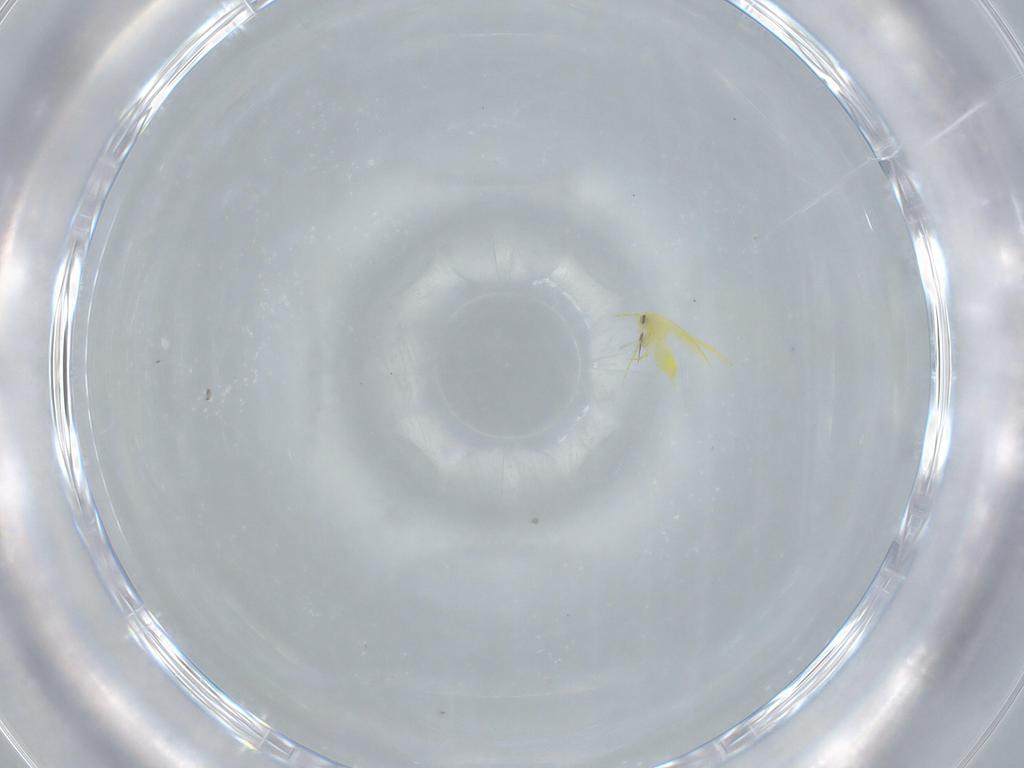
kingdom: Animalia
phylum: Arthropoda
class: Insecta
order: Hemiptera
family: Aleyrodidae
